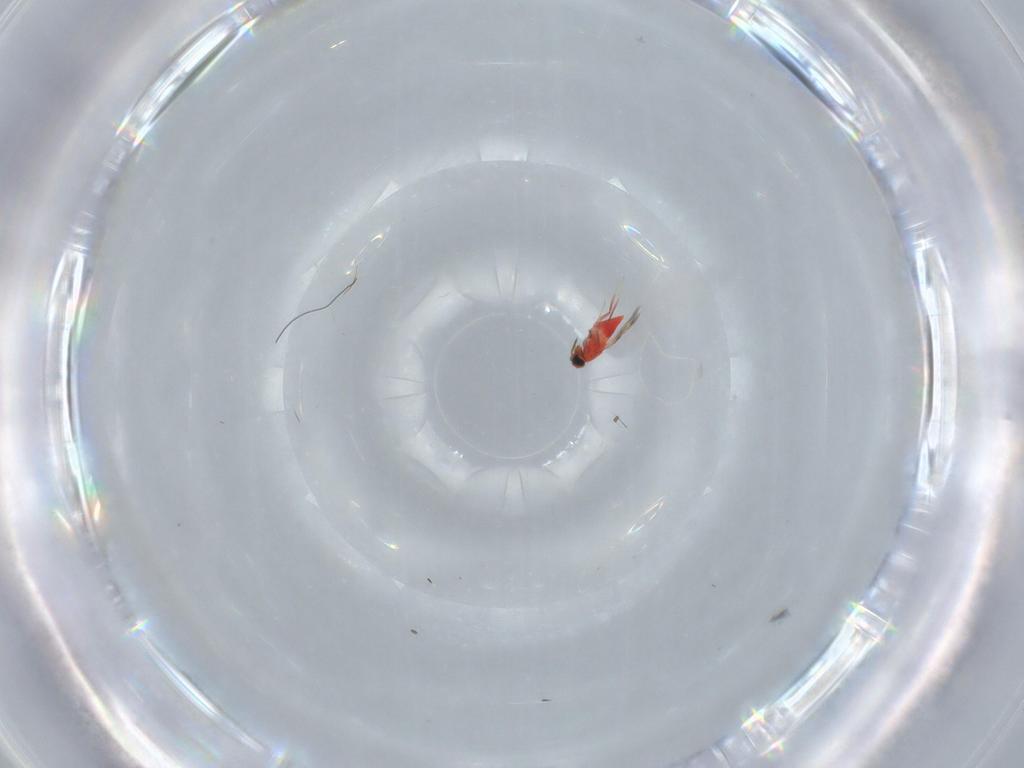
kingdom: Animalia
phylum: Arthropoda
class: Insecta
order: Hymenoptera
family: Trichogrammatidae
